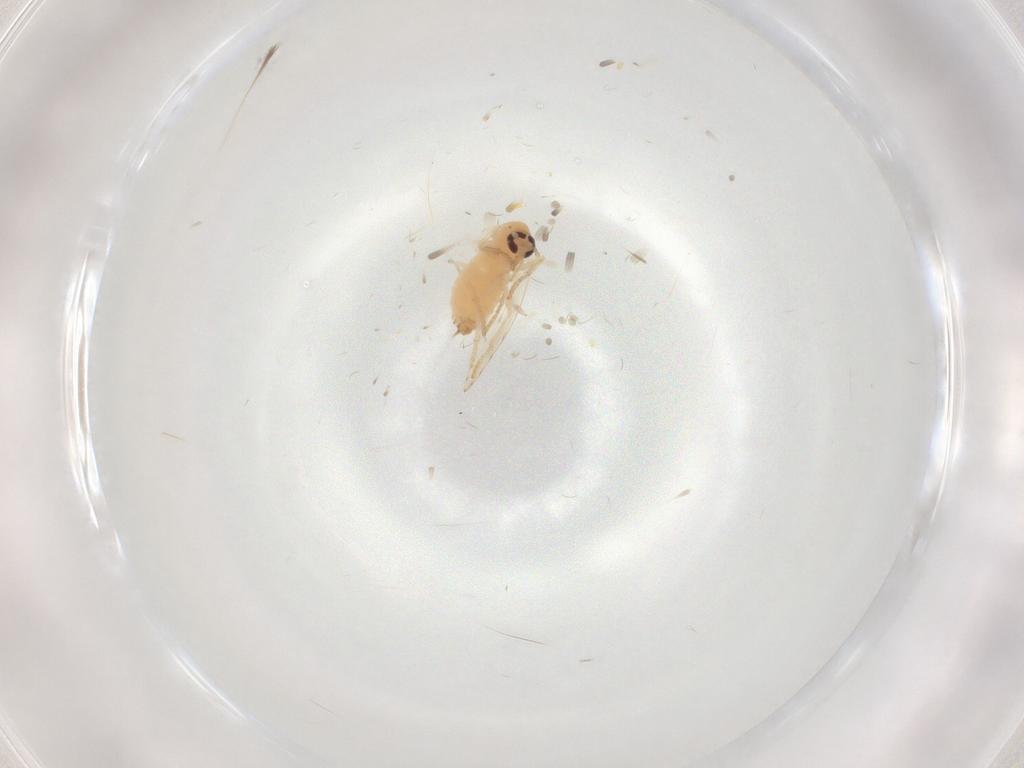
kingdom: Animalia
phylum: Arthropoda
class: Insecta
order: Diptera
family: Psychodidae
